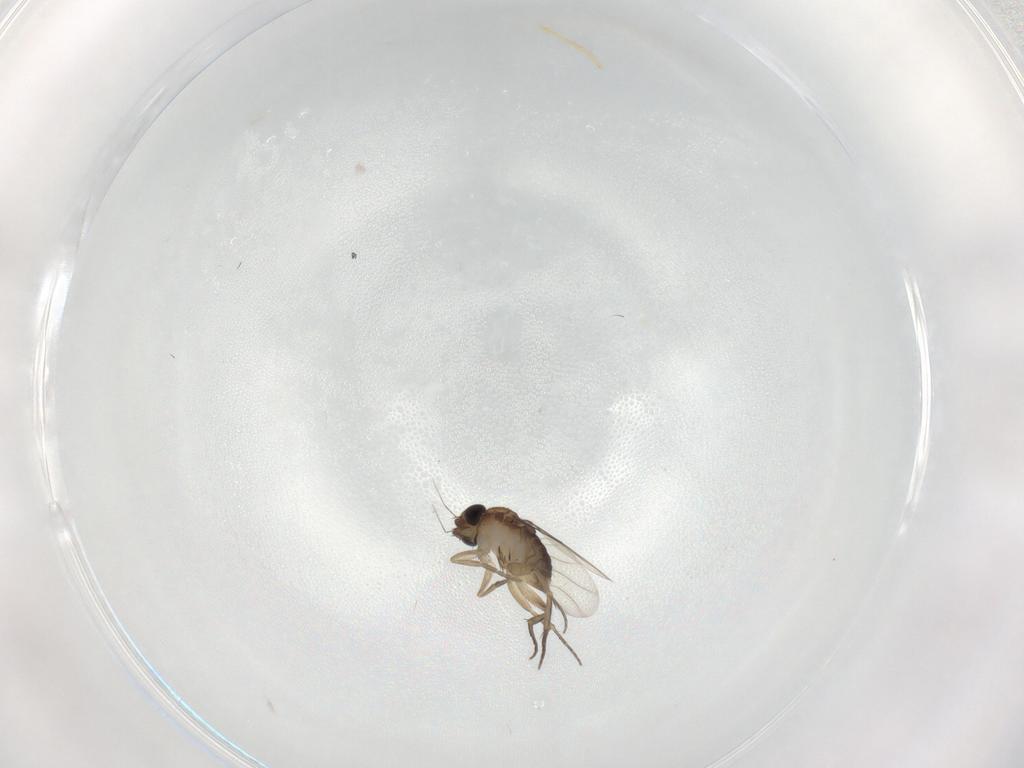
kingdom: Animalia
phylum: Arthropoda
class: Insecta
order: Diptera
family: Phoridae
